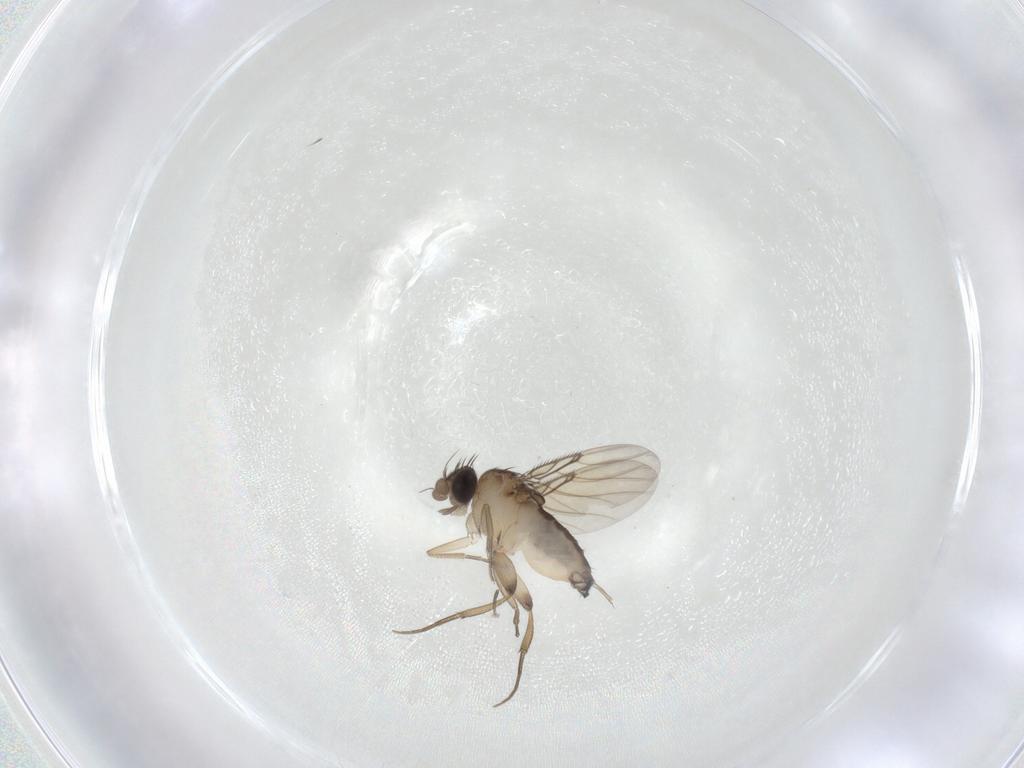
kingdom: Animalia
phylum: Arthropoda
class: Insecta
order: Diptera
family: Phoridae
